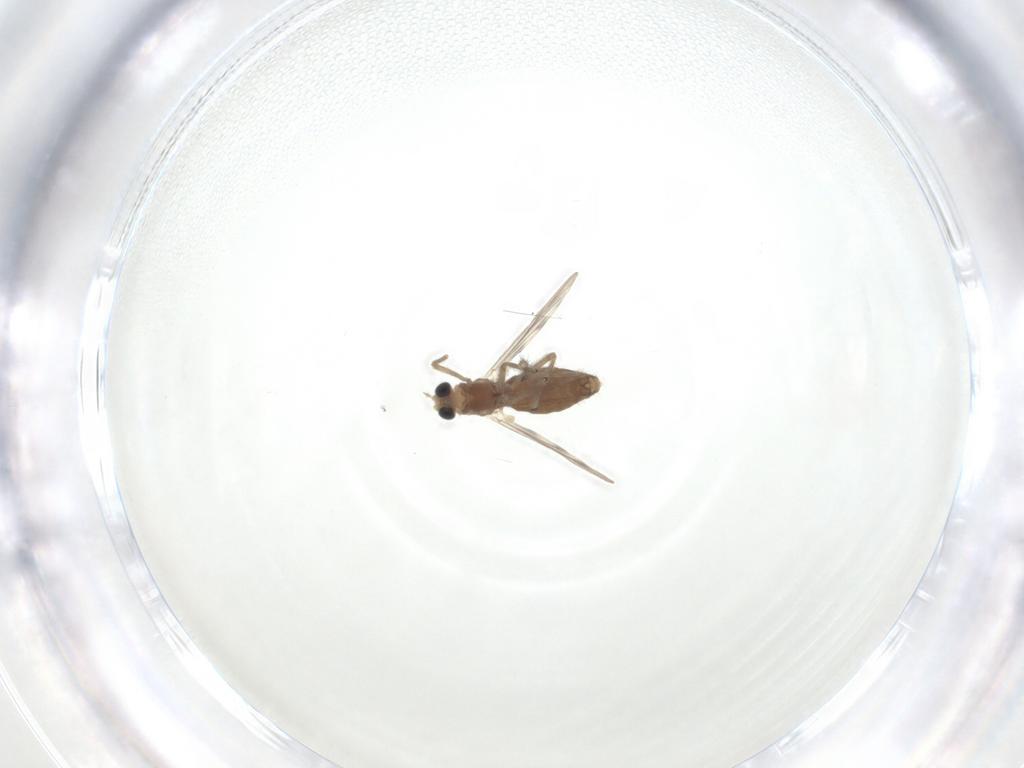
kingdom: Animalia
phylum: Arthropoda
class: Insecta
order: Diptera
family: Chironomidae
